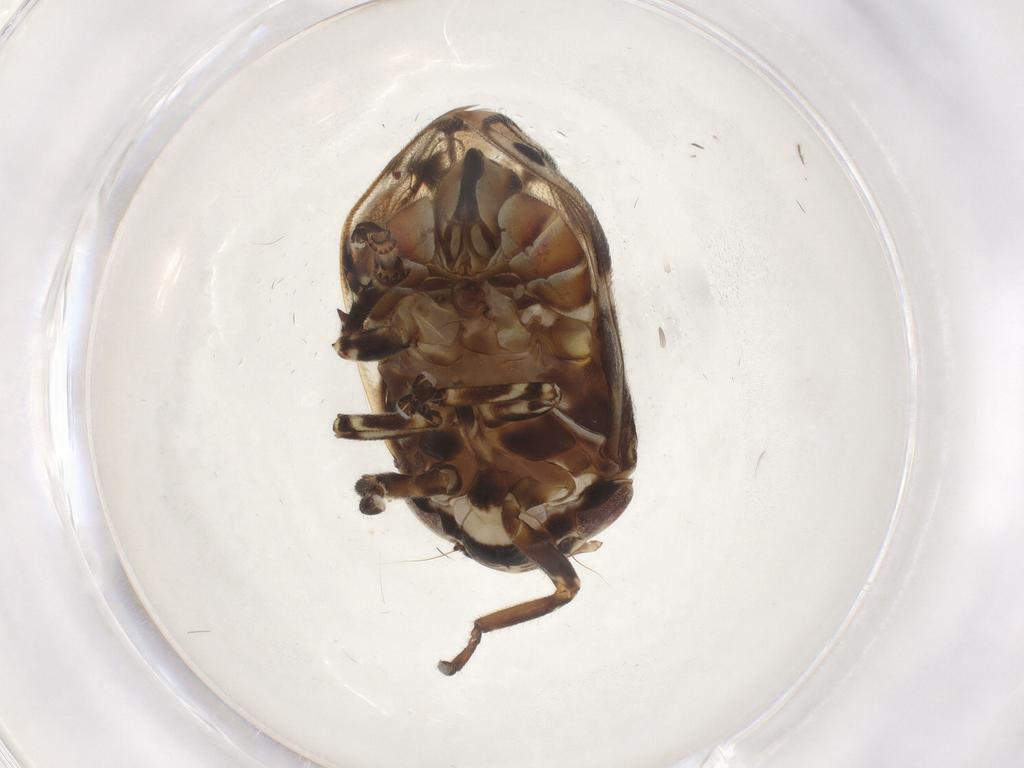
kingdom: Animalia
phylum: Arthropoda
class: Insecta
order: Hemiptera
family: Clastopteridae
